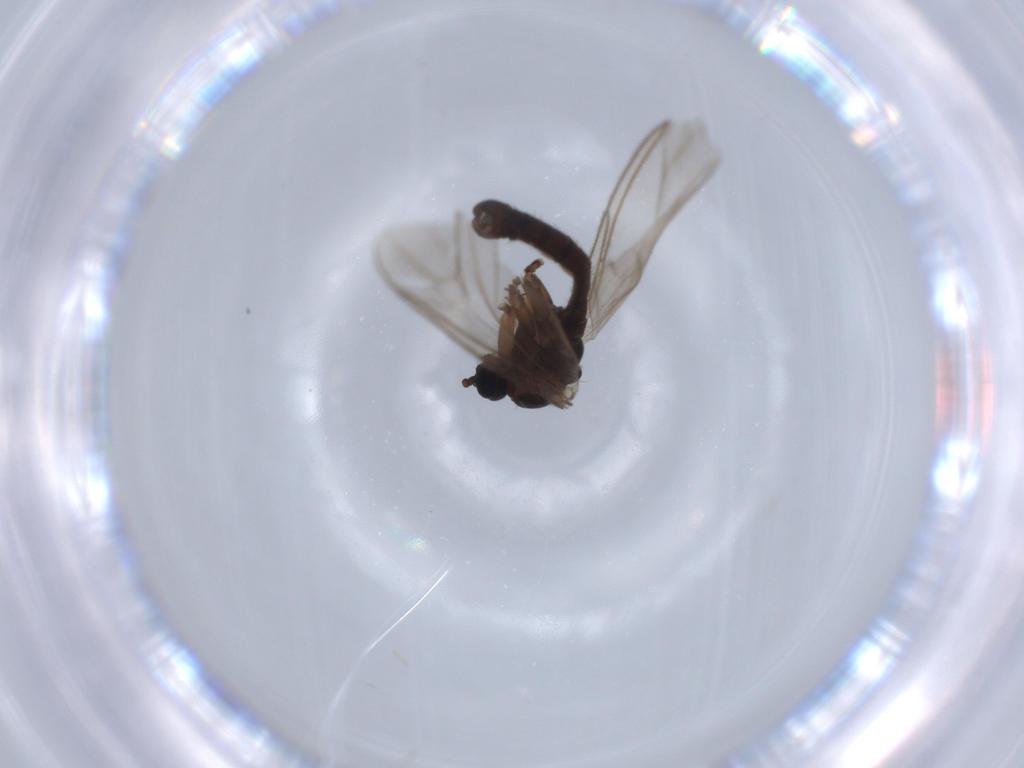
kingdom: Animalia
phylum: Arthropoda
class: Insecta
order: Diptera
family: Sciaridae
